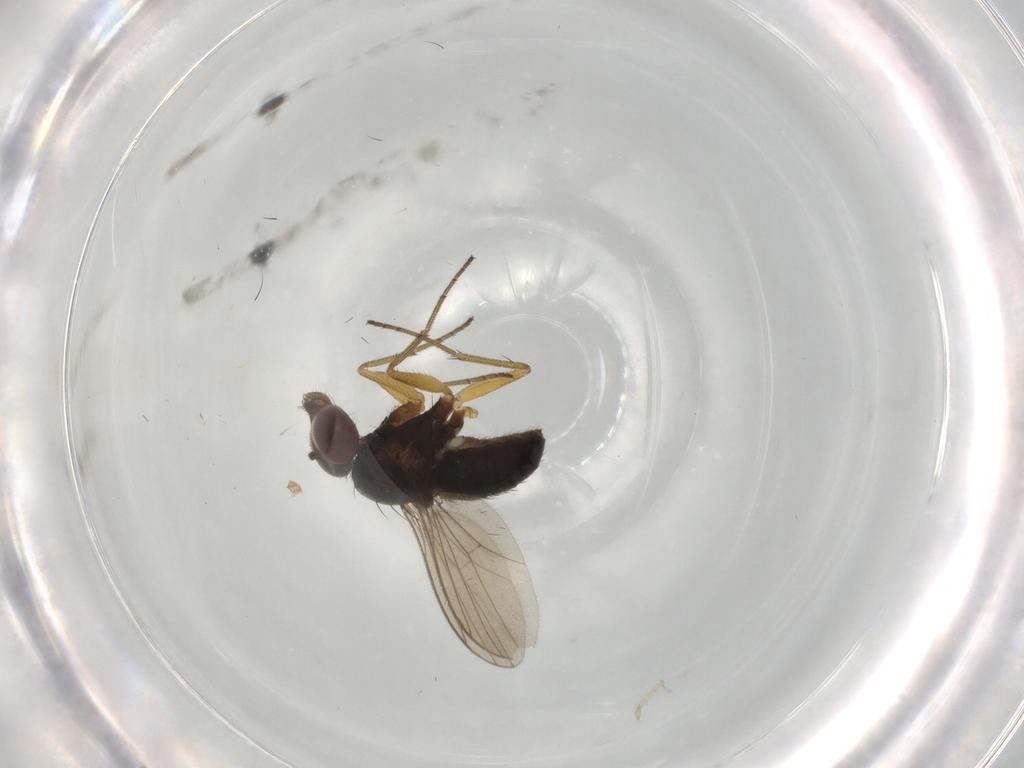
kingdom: Animalia
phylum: Arthropoda
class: Insecta
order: Diptera
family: Dolichopodidae
